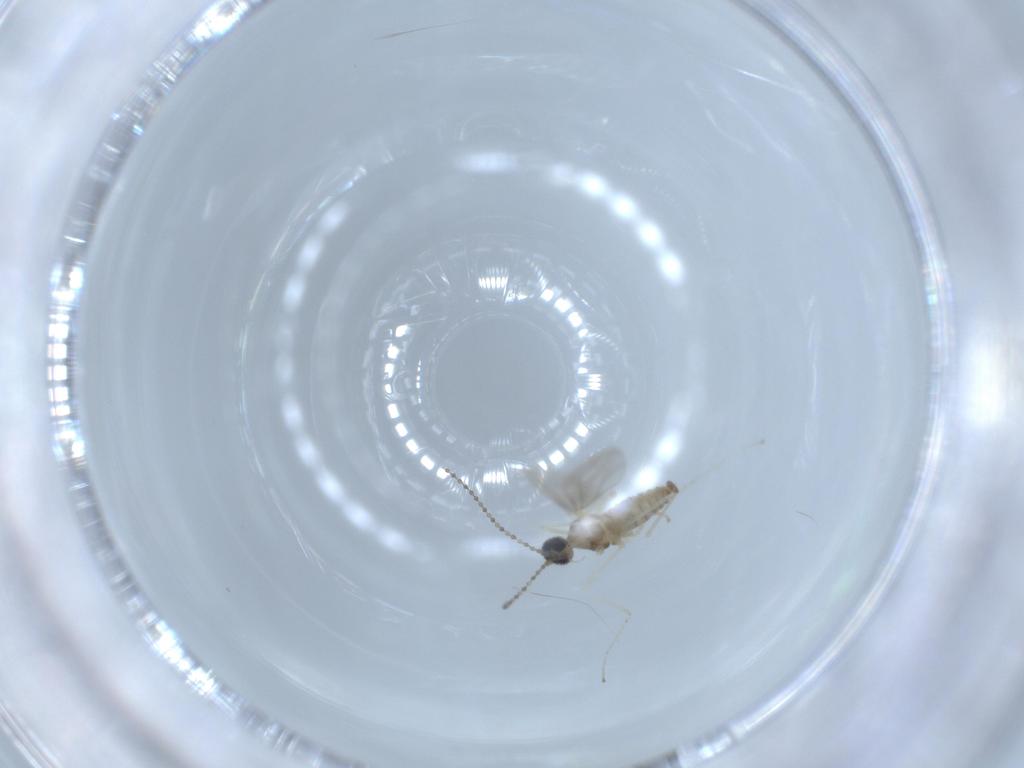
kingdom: Animalia
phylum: Arthropoda
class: Insecta
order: Diptera
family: Cecidomyiidae
